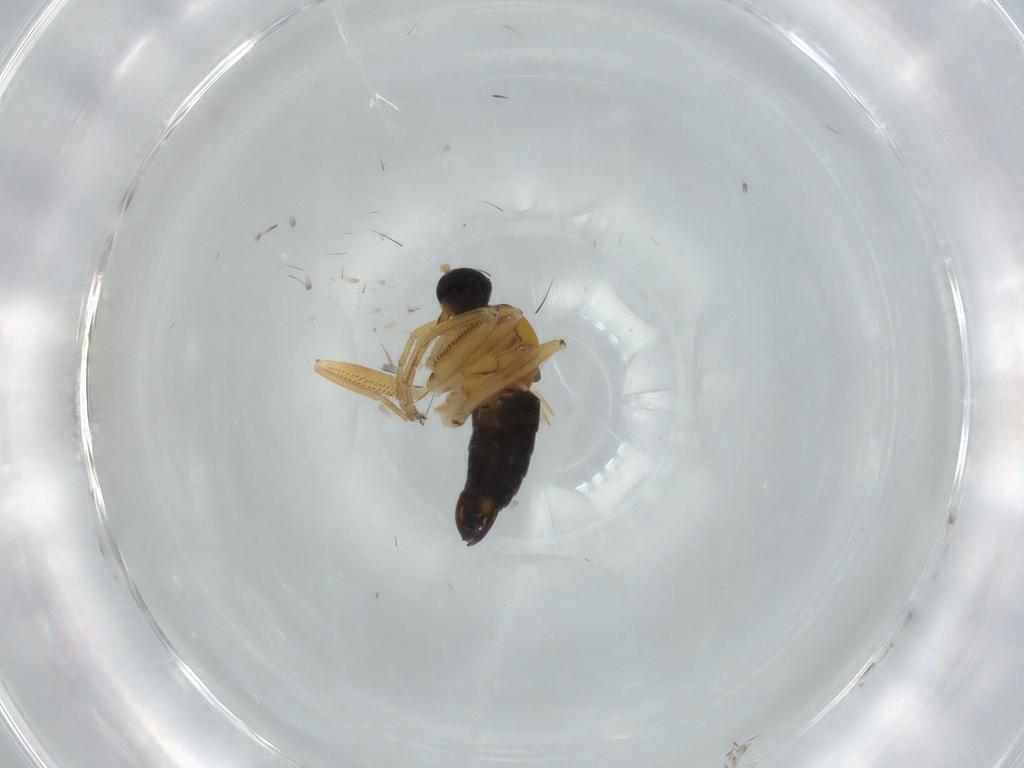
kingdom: Animalia
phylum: Arthropoda
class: Insecta
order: Diptera
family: Hybotidae
